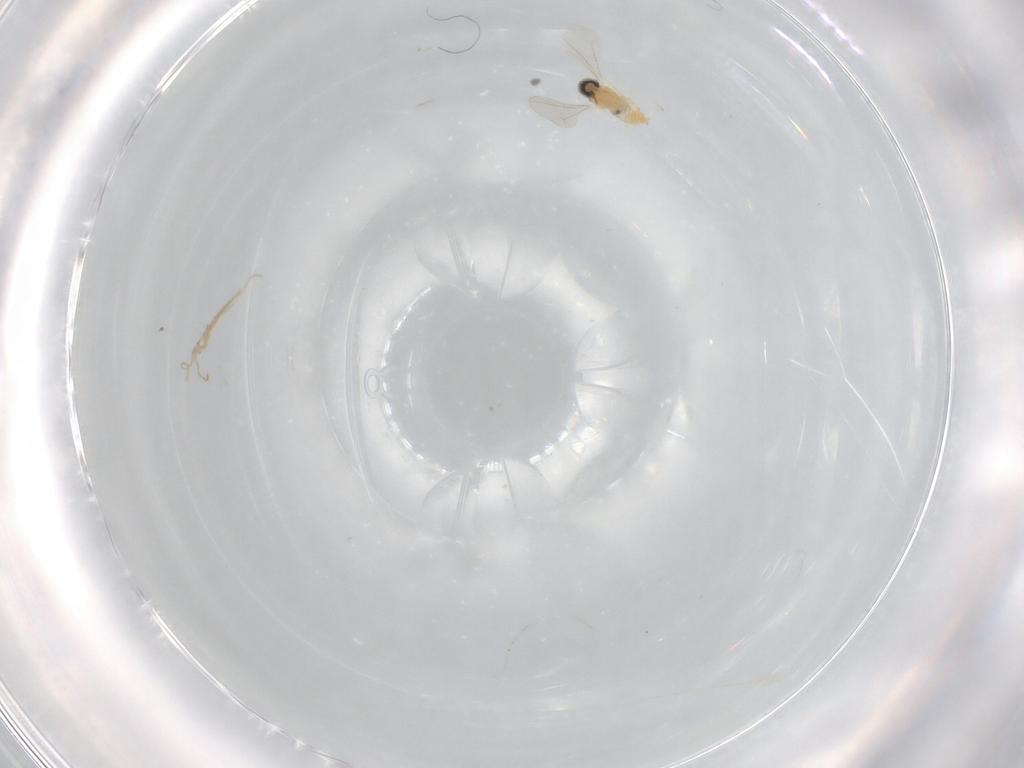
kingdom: Animalia
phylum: Arthropoda
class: Insecta
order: Diptera
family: Cecidomyiidae
